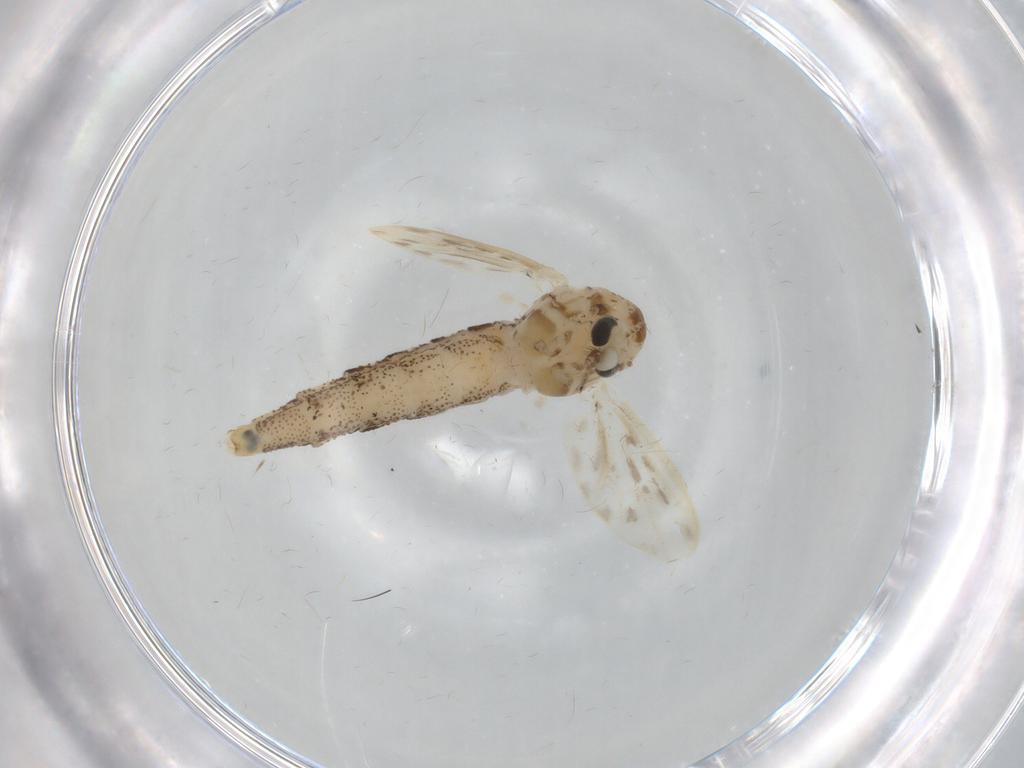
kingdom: Animalia
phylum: Arthropoda
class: Insecta
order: Diptera
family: Chaoboridae
